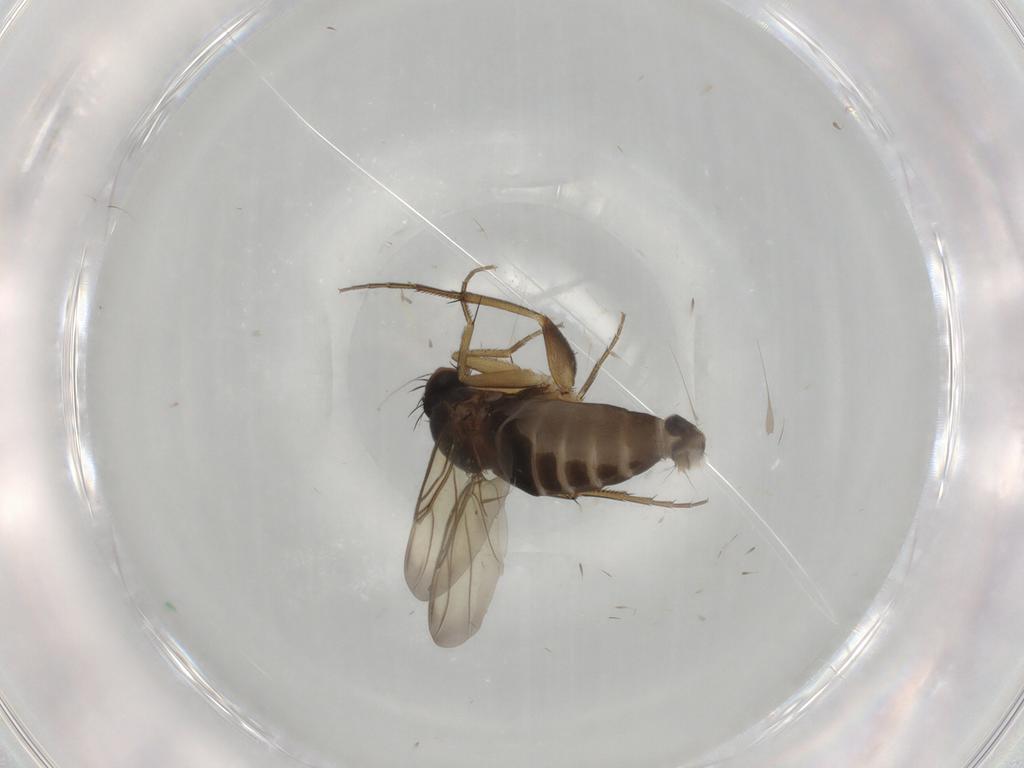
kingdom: Animalia
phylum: Arthropoda
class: Insecta
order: Diptera
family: Phoridae
